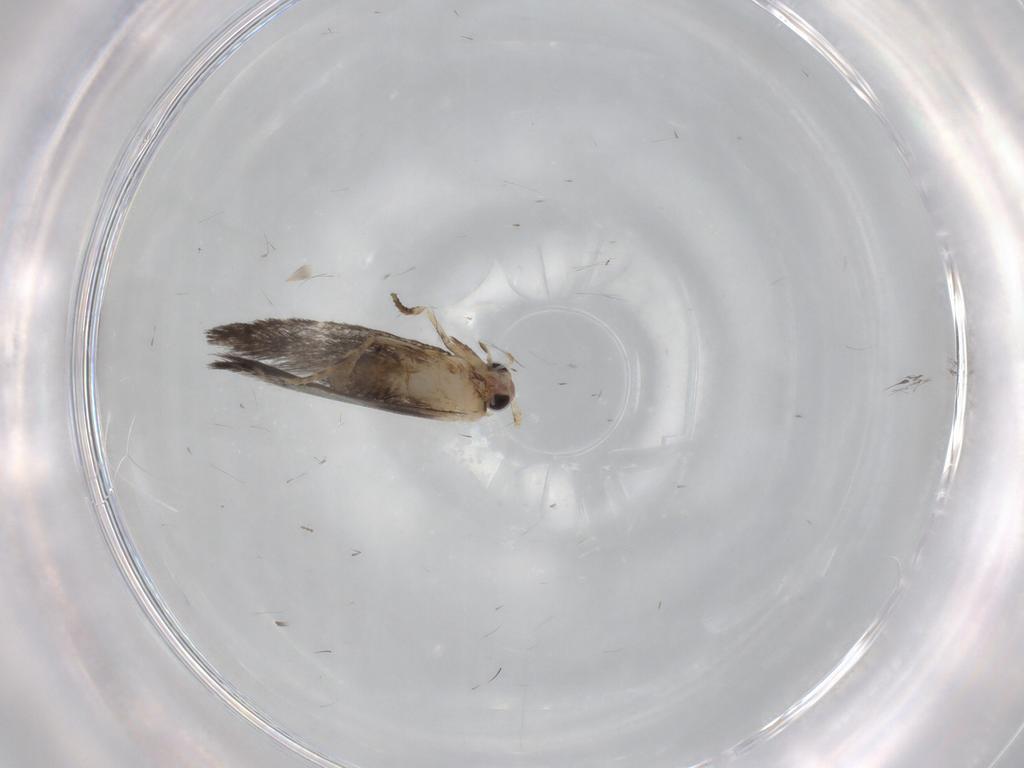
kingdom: Animalia
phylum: Arthropoda
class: Insecta
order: Lepidoptera
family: Tineidae
